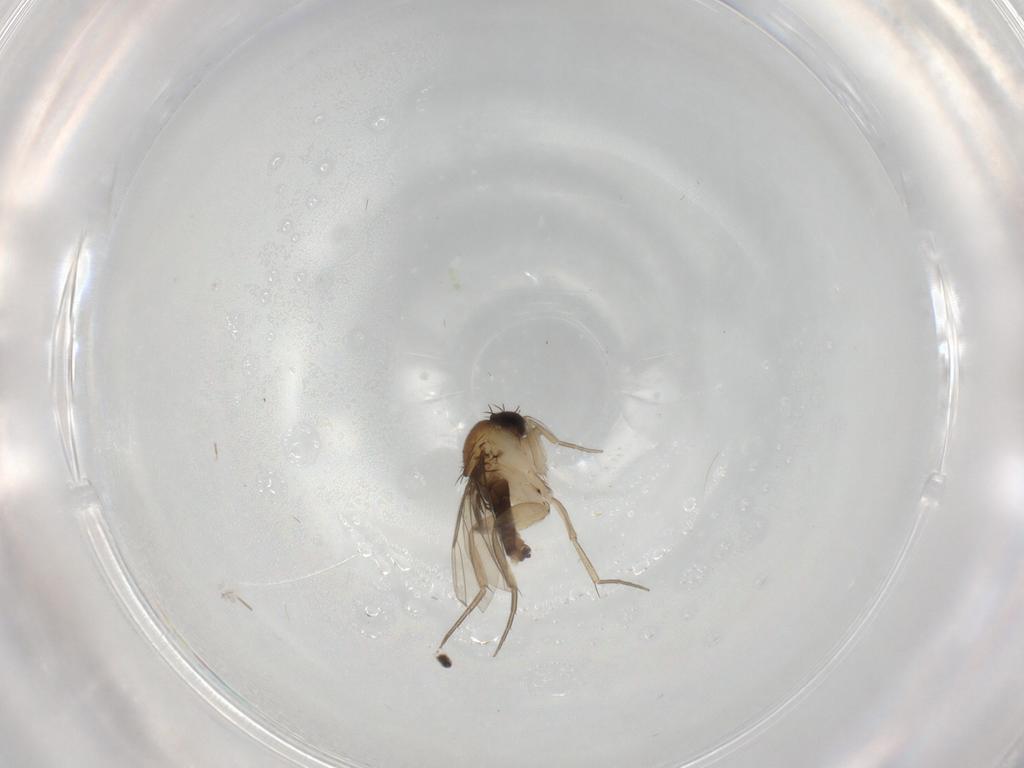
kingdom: Animalia
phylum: Arthropoda
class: Insecta
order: Diptera
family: Phoridae
